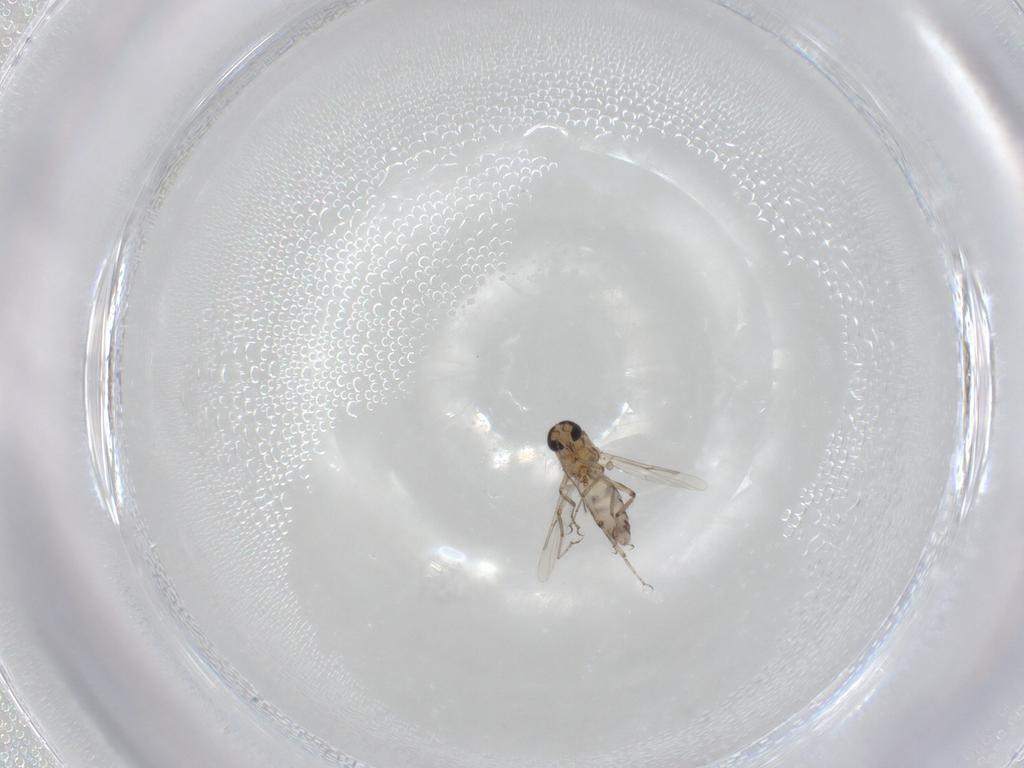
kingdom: Animalia
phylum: Arthropoda
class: Insecta
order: Diptera
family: Ceratopogonidae
